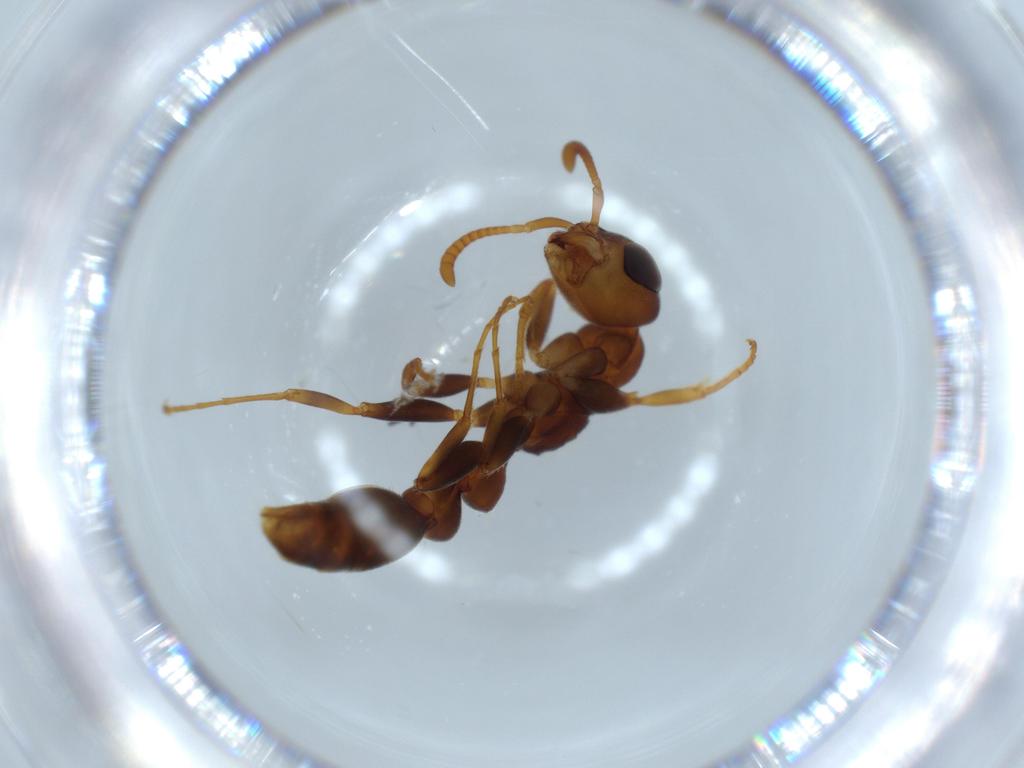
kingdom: Animalia
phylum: Arthropoda
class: Insecta
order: Hymenoptera
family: Formicidae
